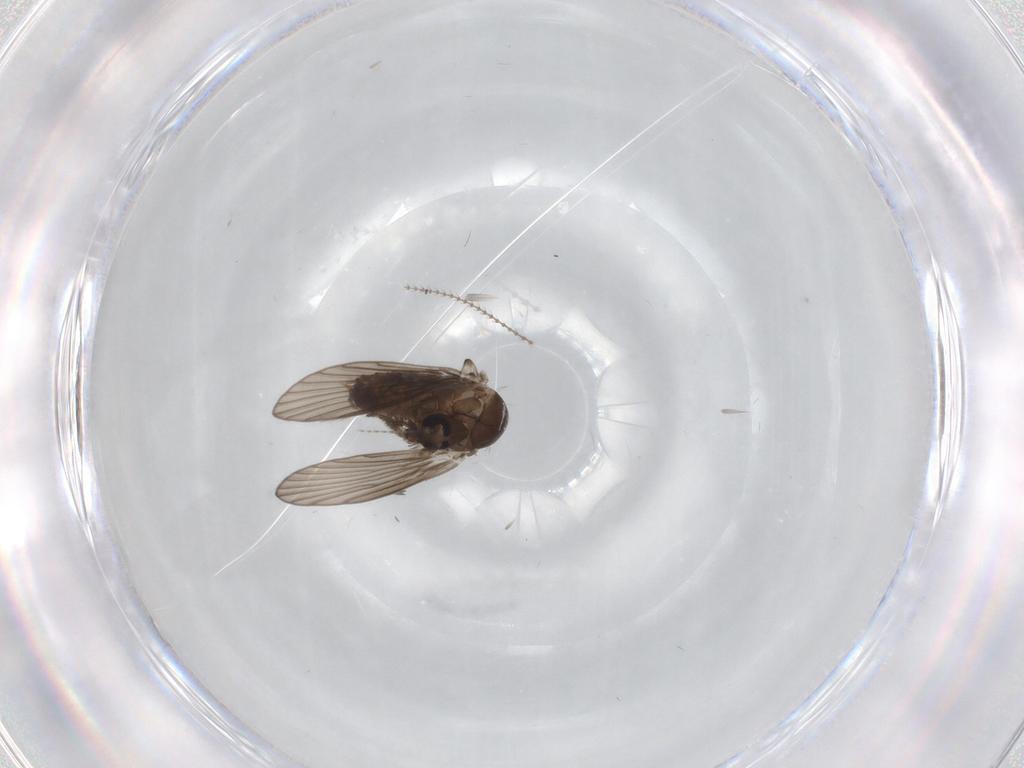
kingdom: Animalia
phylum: Arthropoda
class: Insecta
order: Diptera
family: Psychodidae
